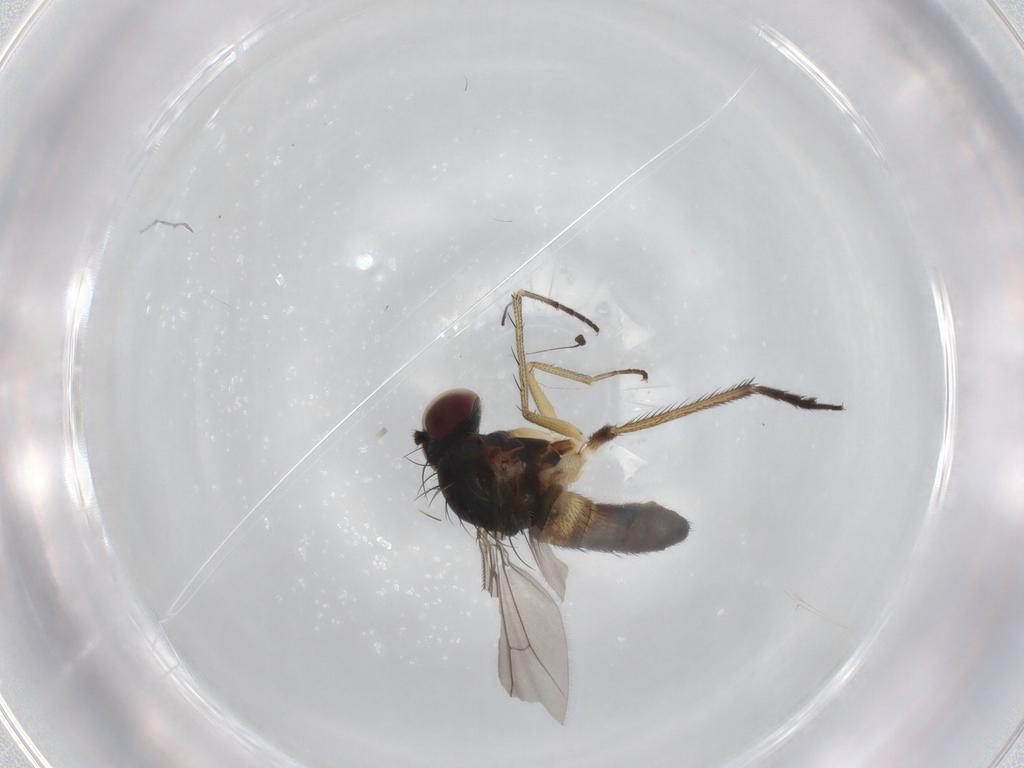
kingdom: Animalia
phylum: Arthropoda
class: Insecta
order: Diptera
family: Dolichopodidae
